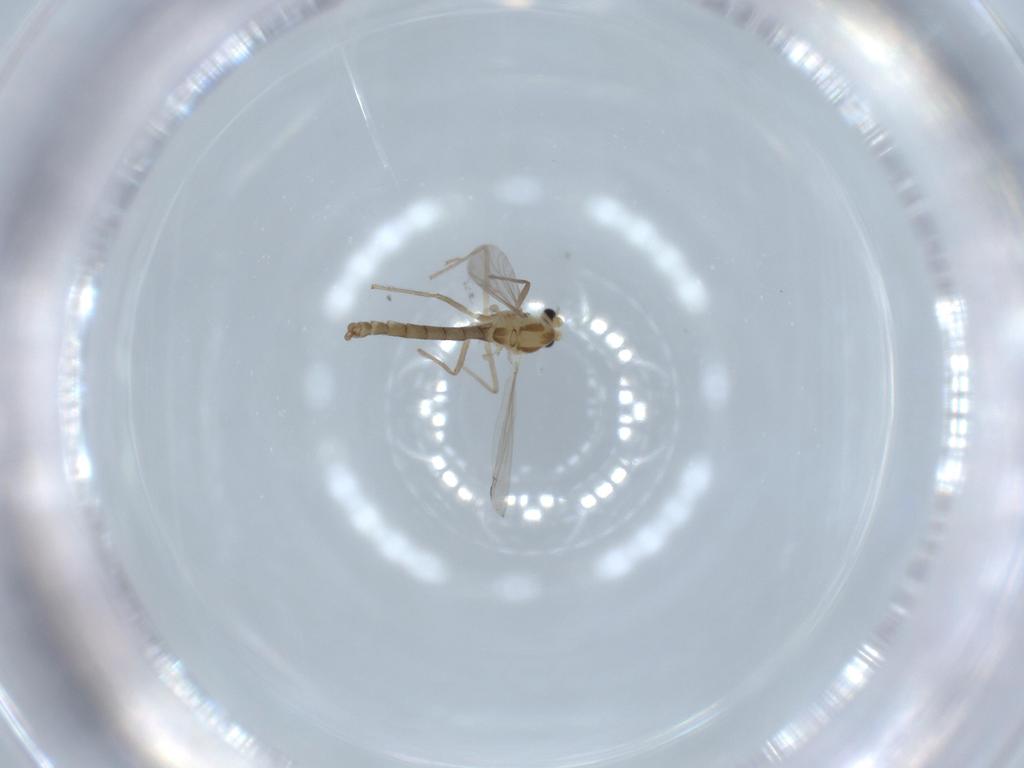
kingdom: Animalia
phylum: Arthropoda
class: Insecta
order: Diptera
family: Chironomidae
